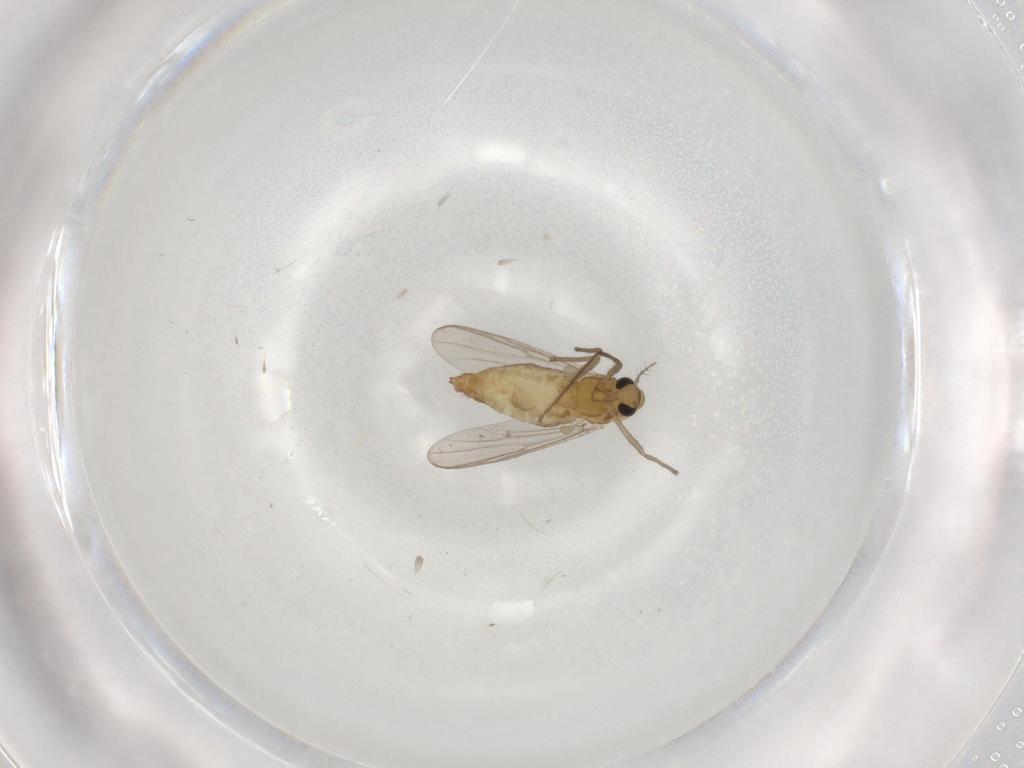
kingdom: Animalia
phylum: Arthropoda
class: Insecta
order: Diptera
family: Chironomidae
